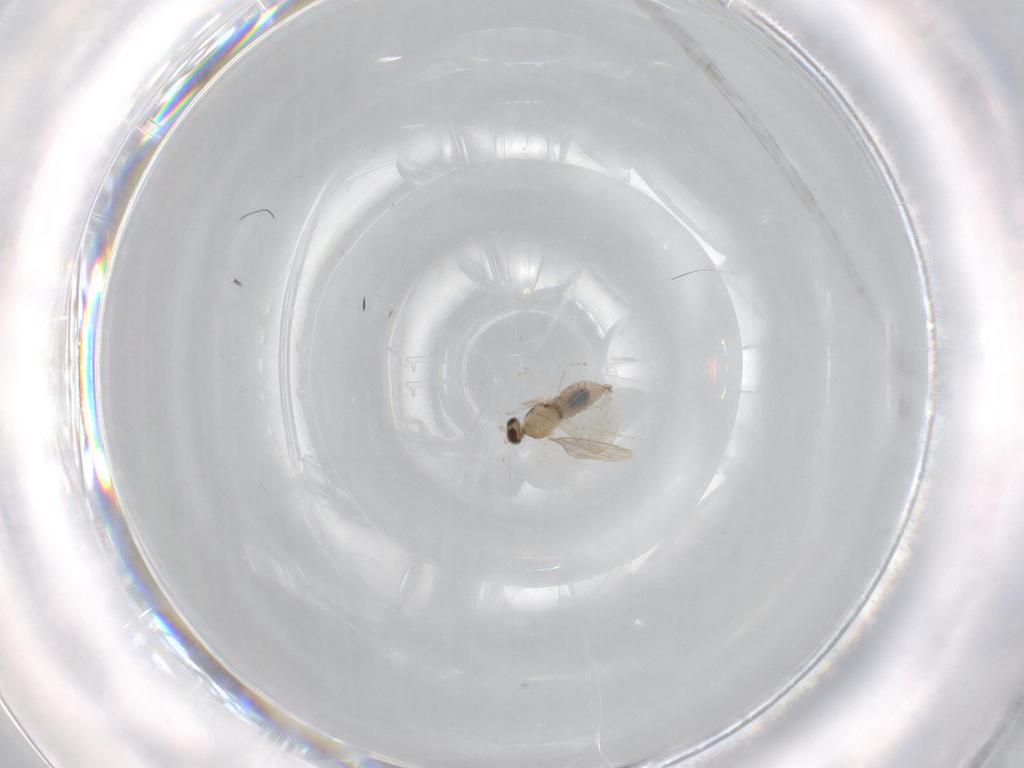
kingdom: Animalia
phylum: Arthropoda
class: Insecta
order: Diptera
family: Cecidomyiidae
